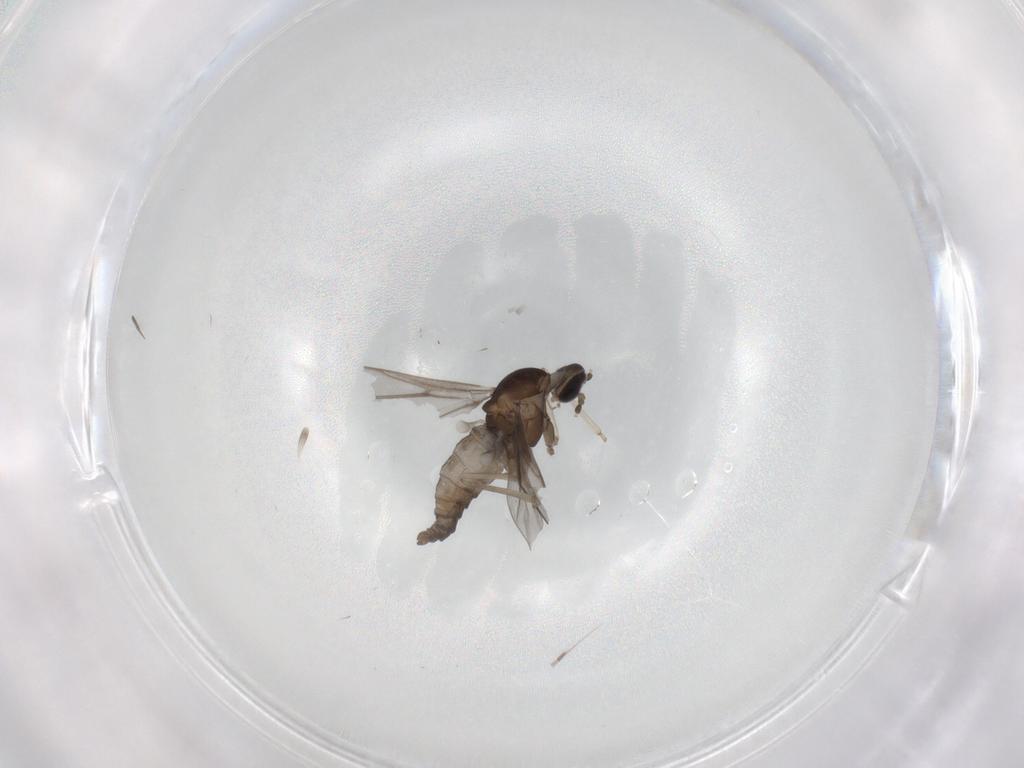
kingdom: Animalia
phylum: Arthropoda
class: Insecta
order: Diptera
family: Cecidomyiidae
